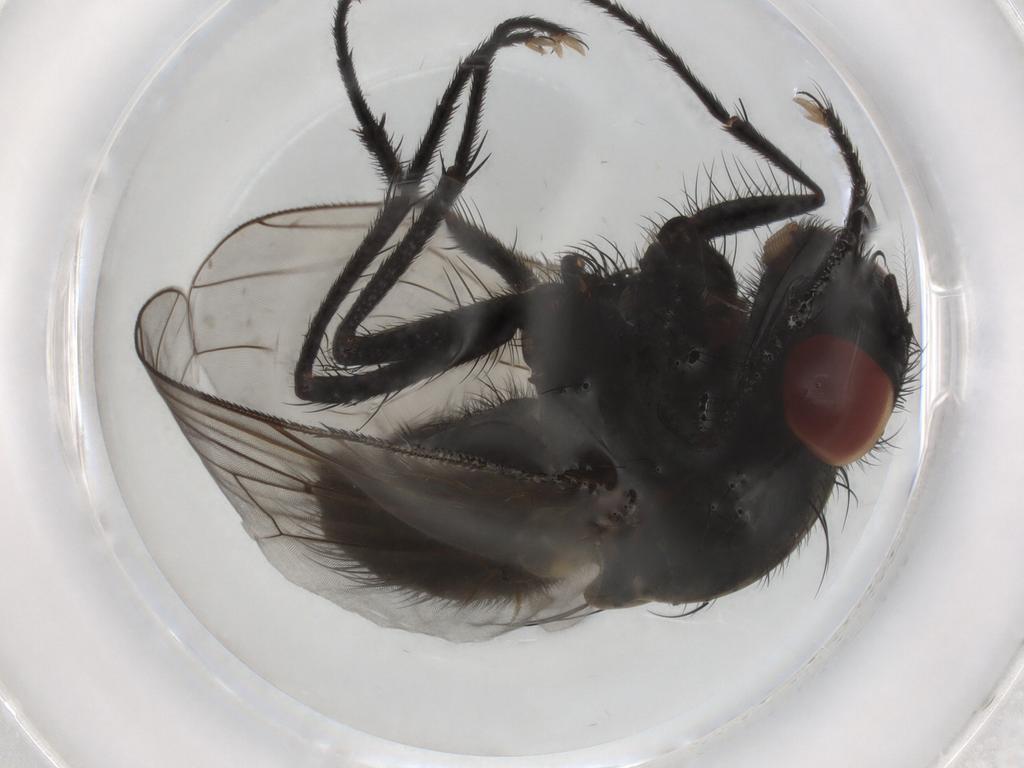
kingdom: Animalia
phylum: Arthropoda
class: Insecta
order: Diptera
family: Muscidae
